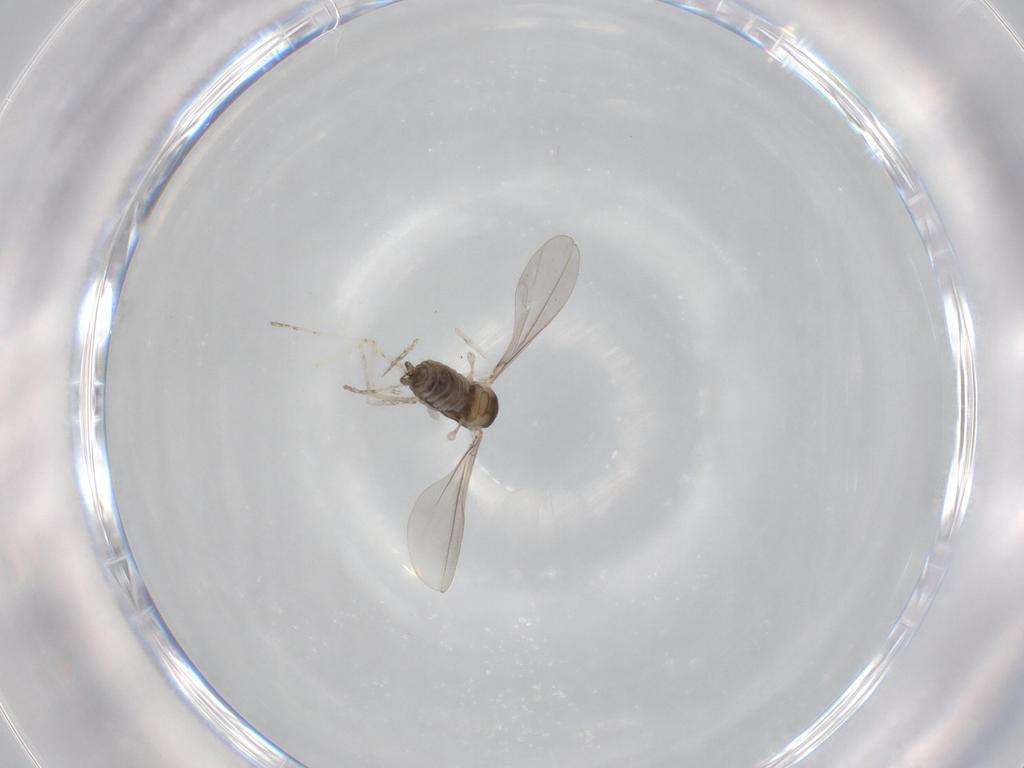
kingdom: Animalia
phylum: Arthropoda
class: Insecta
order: Diptera
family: Cecidomyiidae
